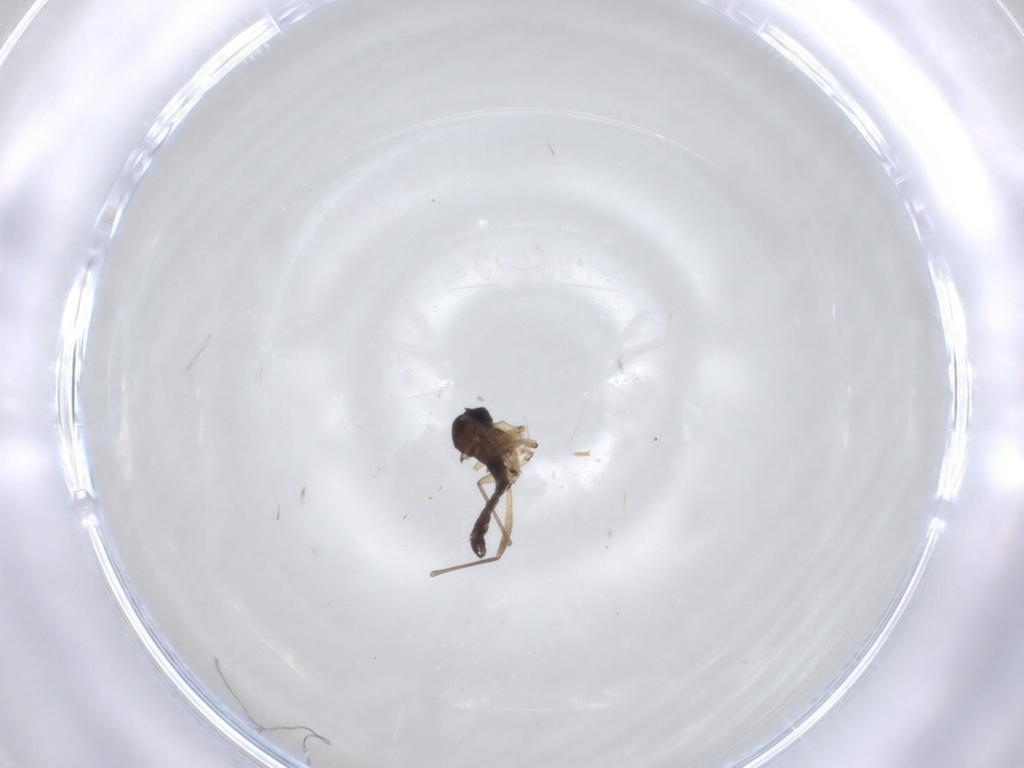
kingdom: Animalia
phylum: Arthropoda
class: Insecta
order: Diptera
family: Sciaridae
